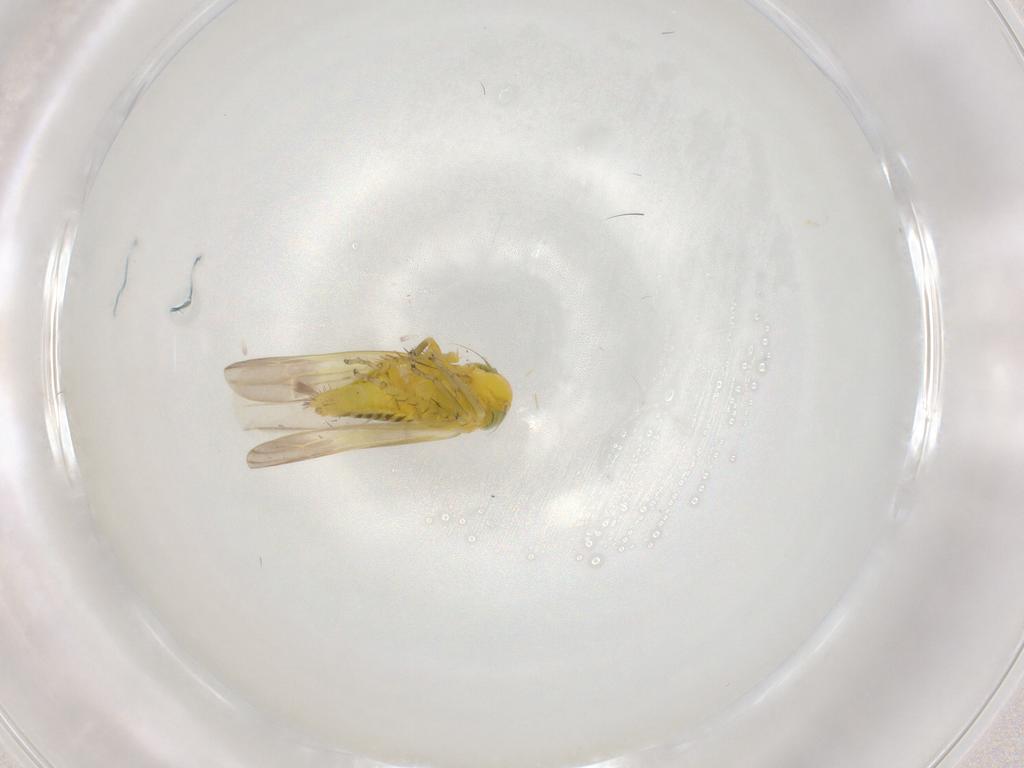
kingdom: Animalia
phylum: Arthropoda
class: Insecta
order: Hemiptera
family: Cicadellidae
